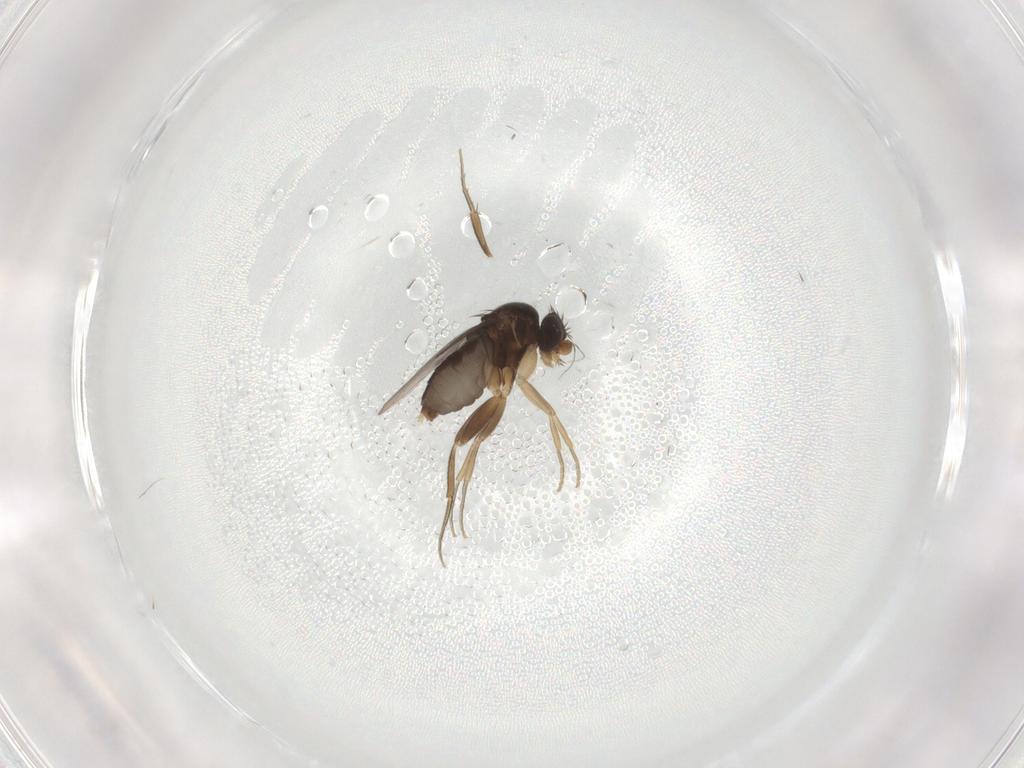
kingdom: Animalia
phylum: Arthropoda
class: Insecta
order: Diptera
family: Phoridae
